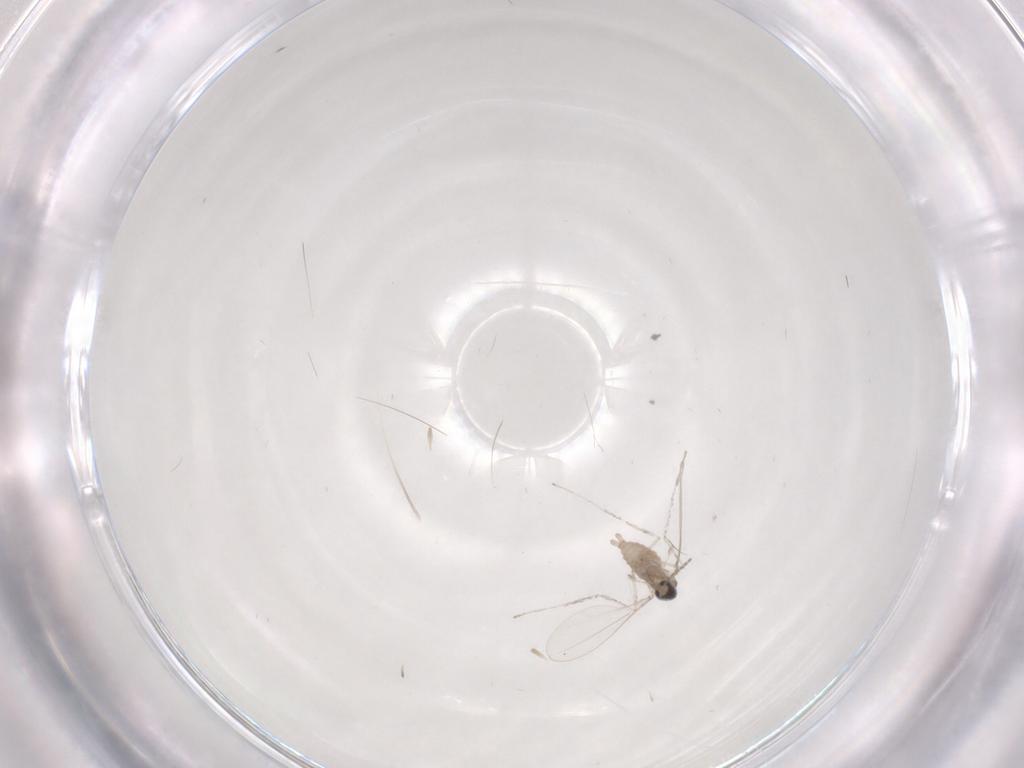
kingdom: Animalia
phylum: Arthropoda
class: Insecta
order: Diptera
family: Cecidomyiidae
